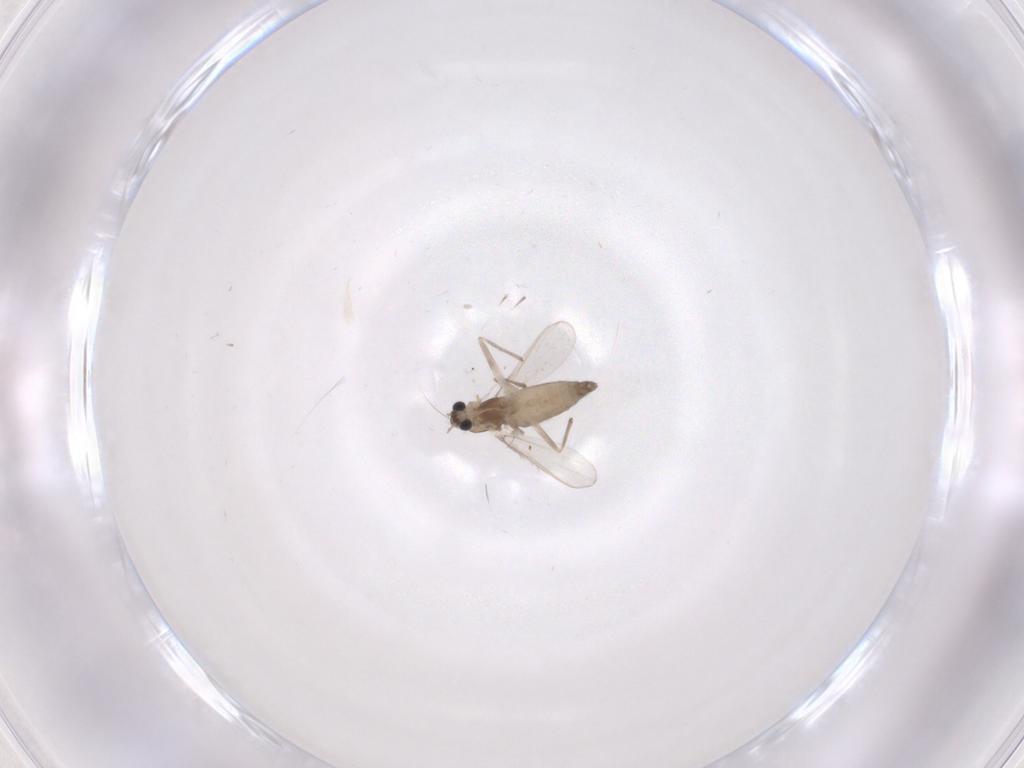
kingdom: Animalia
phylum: Arthropoda
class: Insecta
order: Diptera
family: Chironomidae
